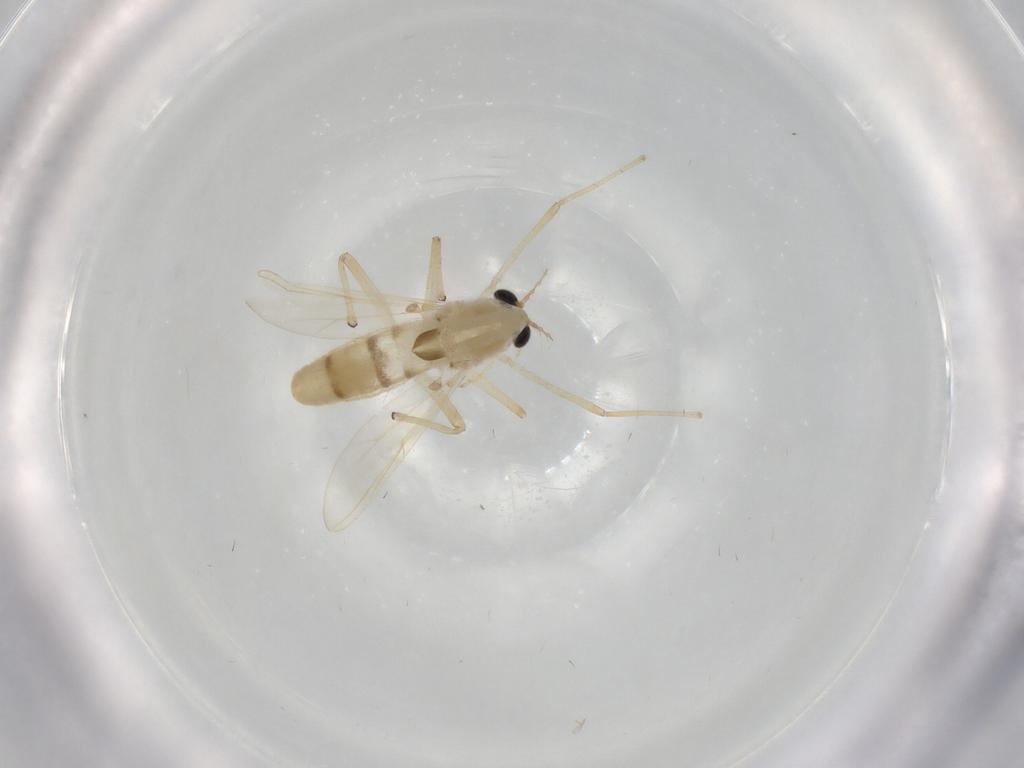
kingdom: Animalia
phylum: Arthropoda
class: Insecta
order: Diptera
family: Chironomidae
